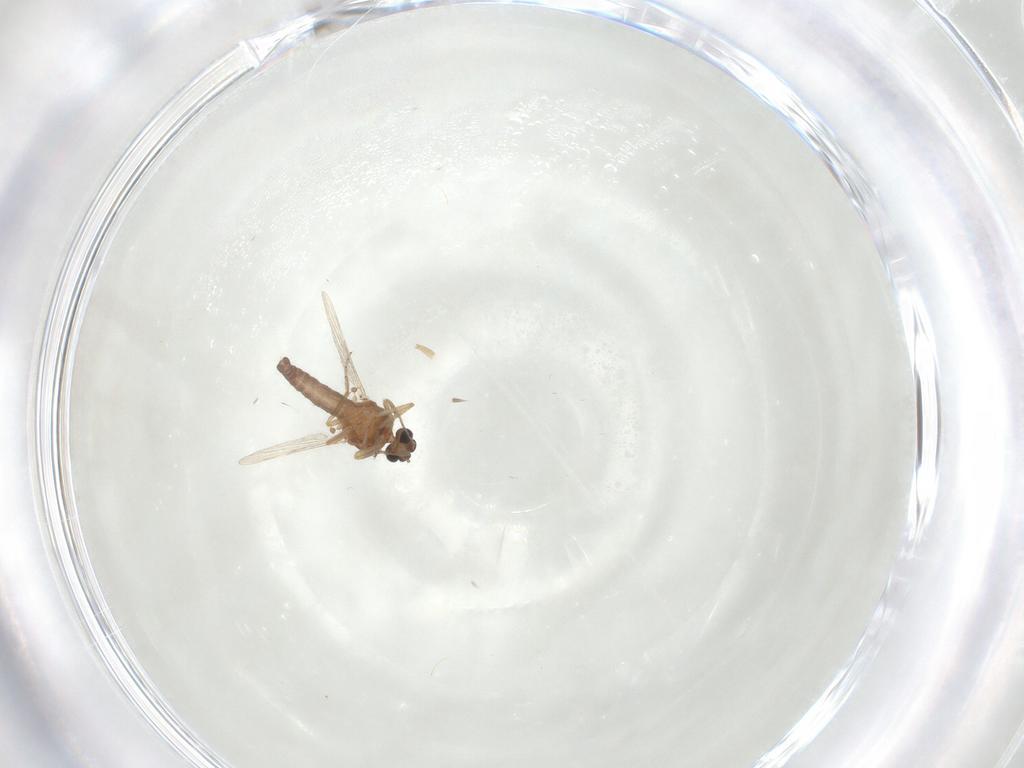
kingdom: Animalia
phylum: Arthropoda
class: Insecta
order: Diptera
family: Ceratopogonidae
